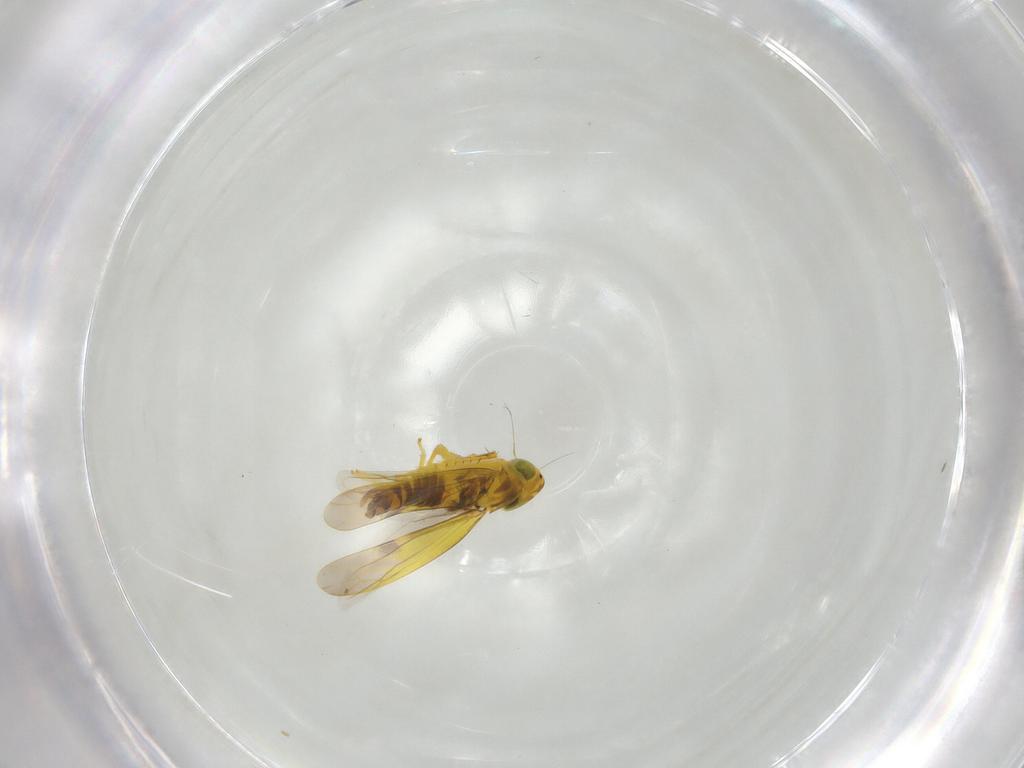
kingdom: Animalia
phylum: Arthropoda
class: Insecta
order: Hemiptera
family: Cicadellidae
